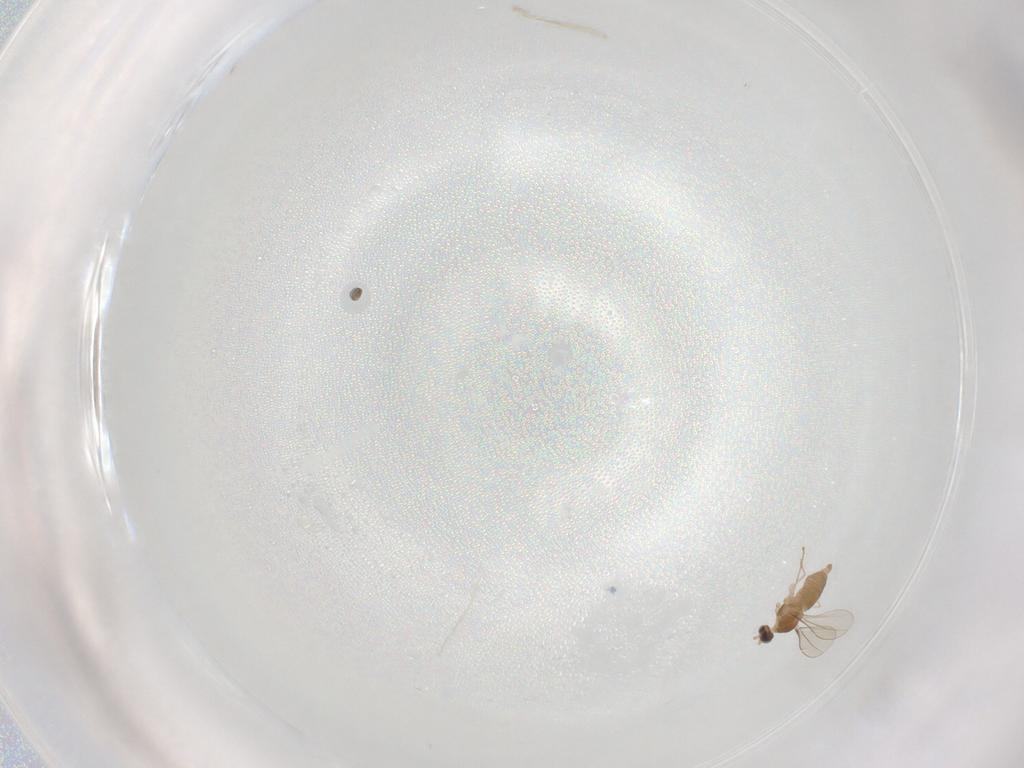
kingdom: Animalia
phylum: Arthropoda
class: Insecta
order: Diptera
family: Cecidomyiidae
